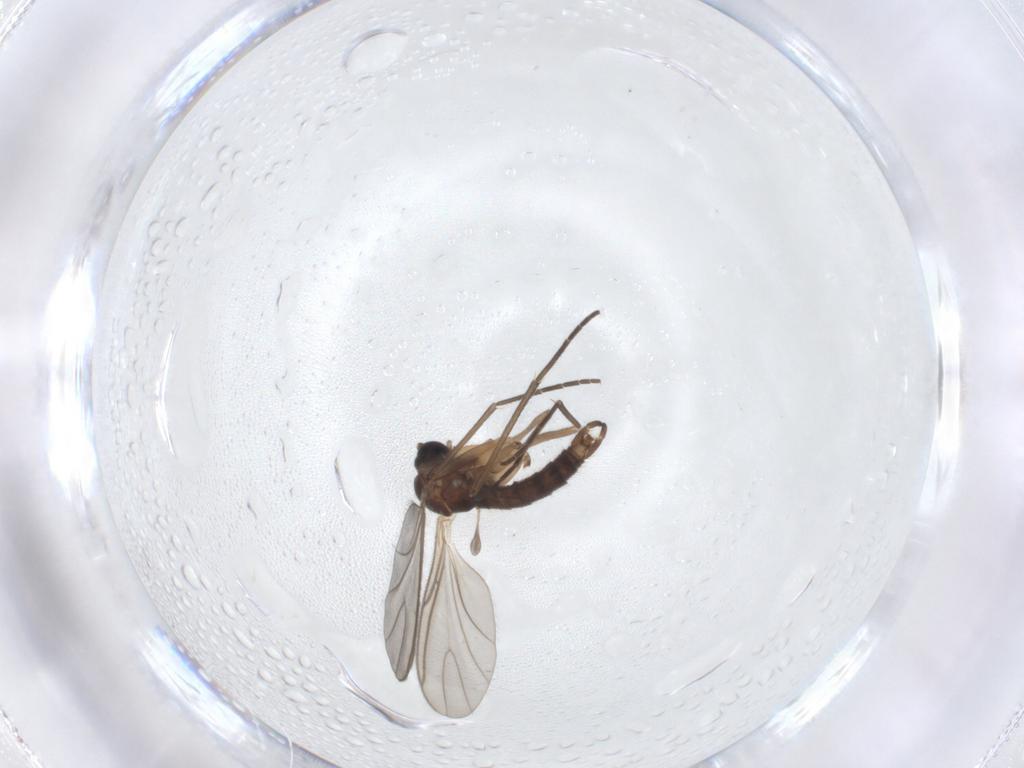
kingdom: Animalia
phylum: Arthropoda
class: Insecta
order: Diptera
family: Sciaridae
